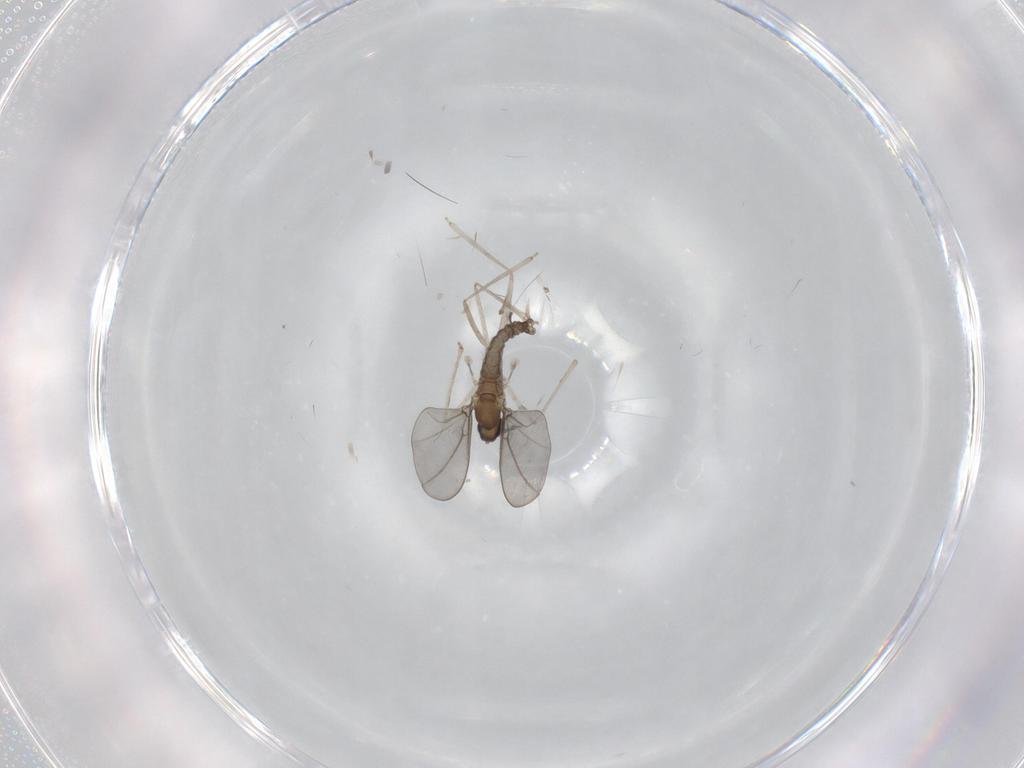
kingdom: Animalia
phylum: Arthropoda
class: Insecta
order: Diptera
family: Cecidomyiidae
